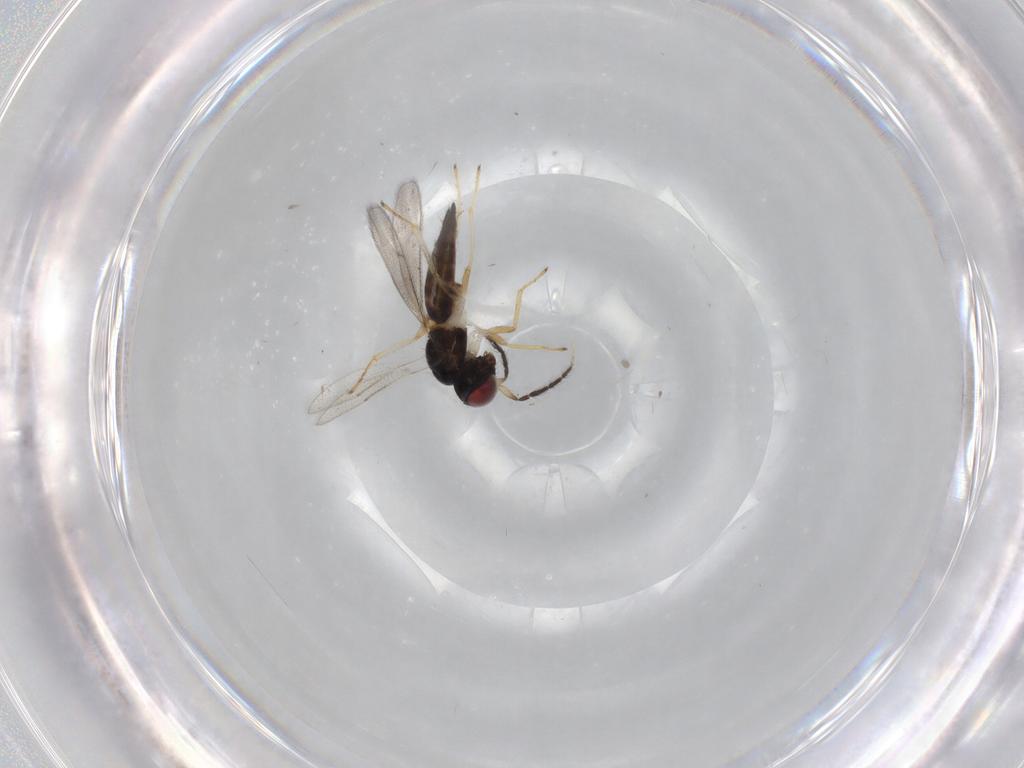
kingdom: Animalia
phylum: Arthropoda
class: Insecta
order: Hymenoptera
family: Eulophidae
